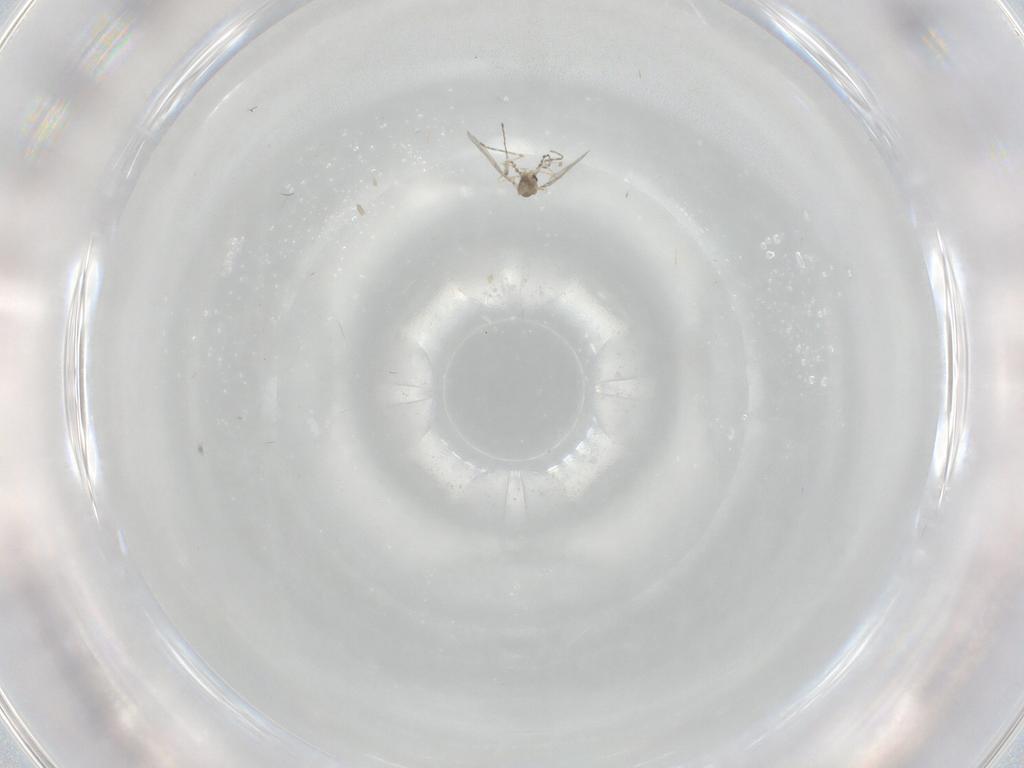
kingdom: Animalia
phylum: Arthropoda
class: Insecta
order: Diptera
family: Cecidomyiidae
